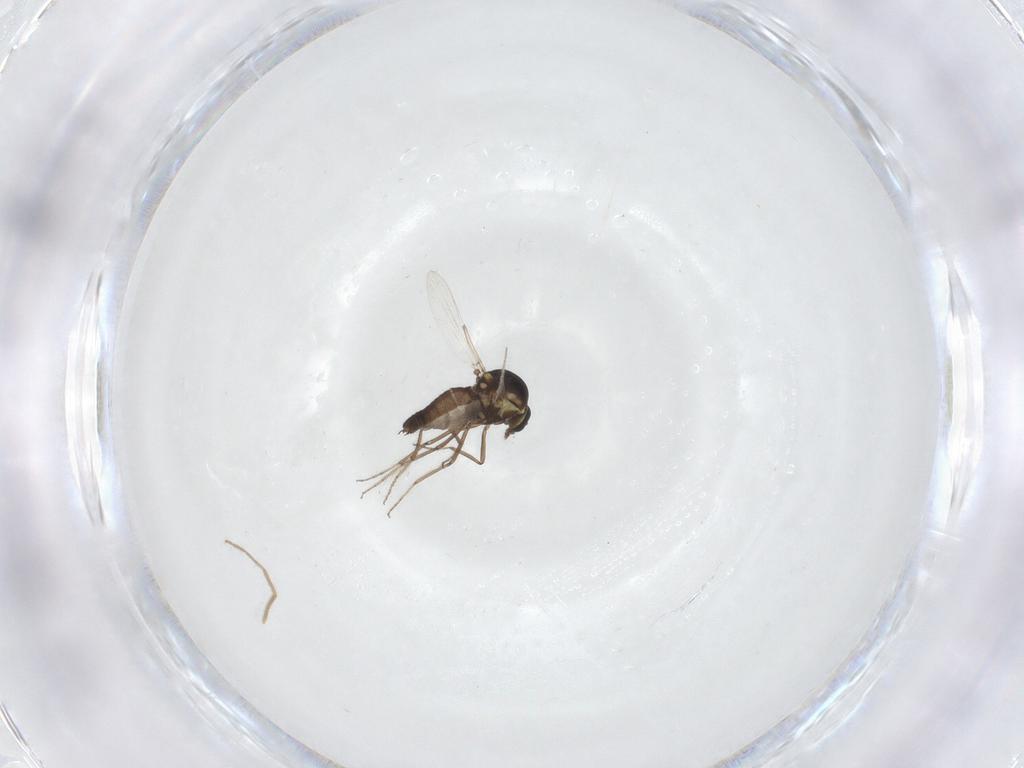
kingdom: Animalia
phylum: Arthropoda
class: Insecta
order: Diptera
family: Ceratopogonidae
